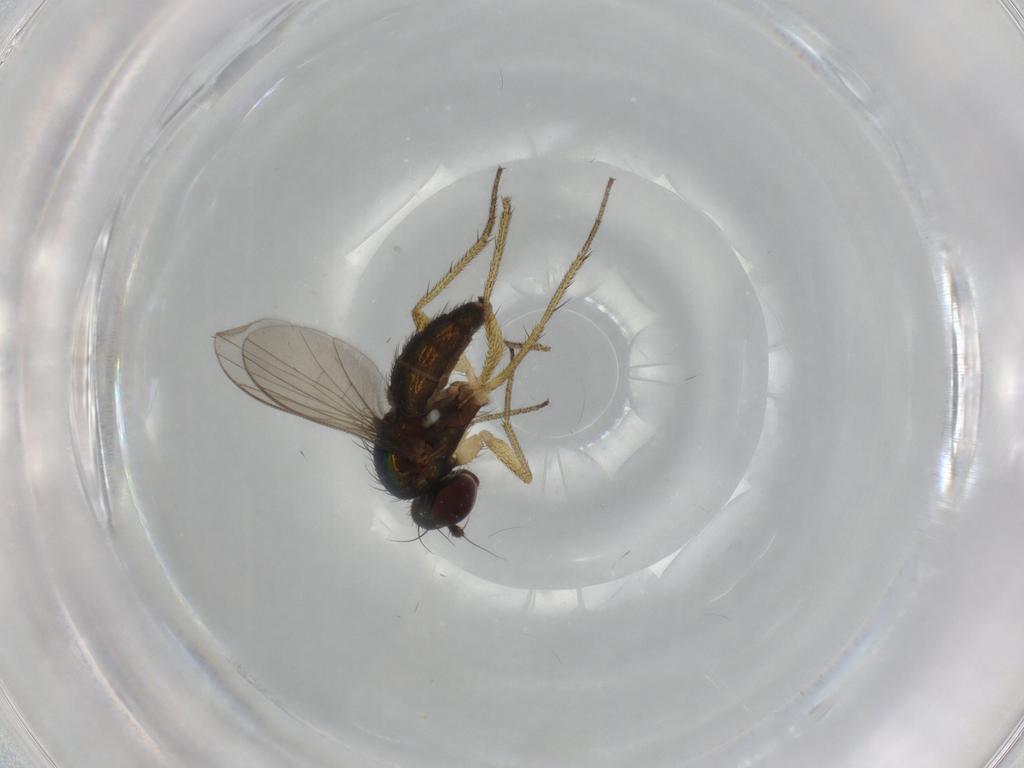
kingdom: Animalia
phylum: Arthropoda
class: Insecta
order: Diptera
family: Dolichopodidae
